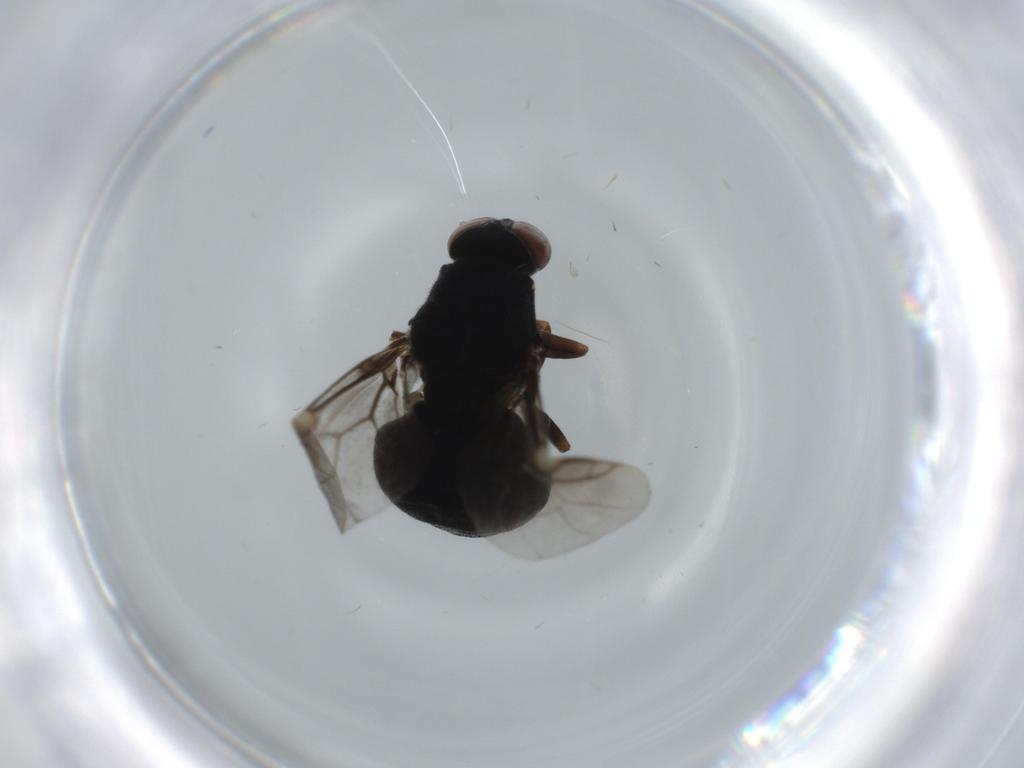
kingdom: Animalia
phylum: Arthropoda
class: Insecta
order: Diptera
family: Stratiomyidae
